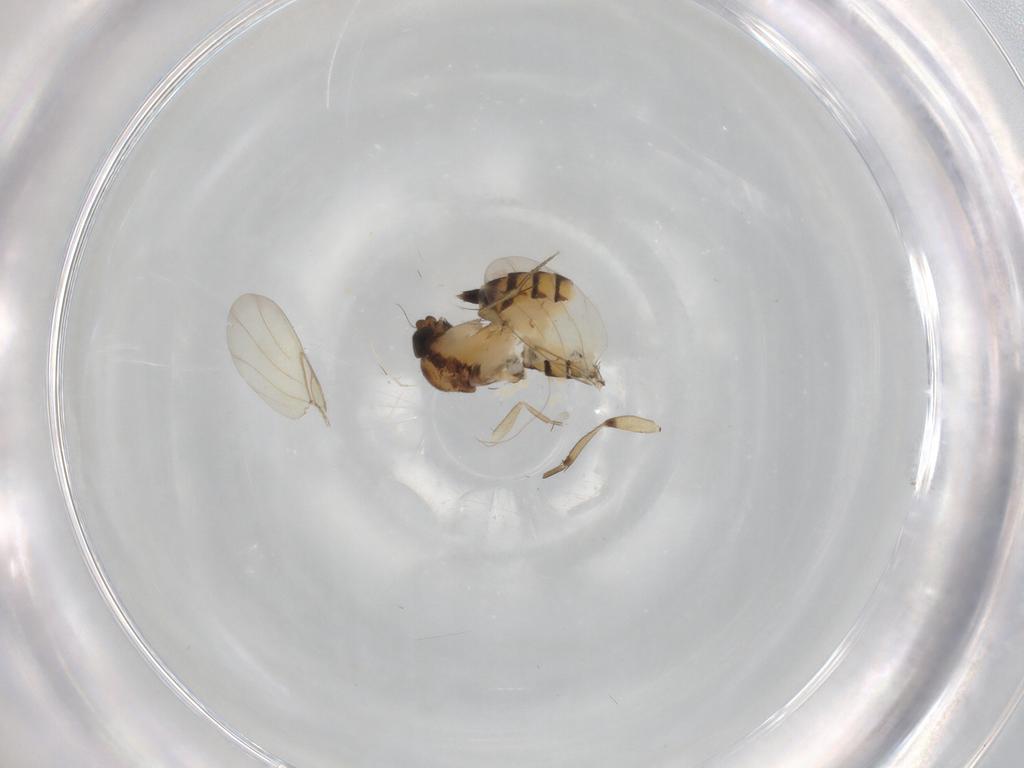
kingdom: Animalia
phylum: Arthropoda
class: Insecta
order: Diptera
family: Phoridae
